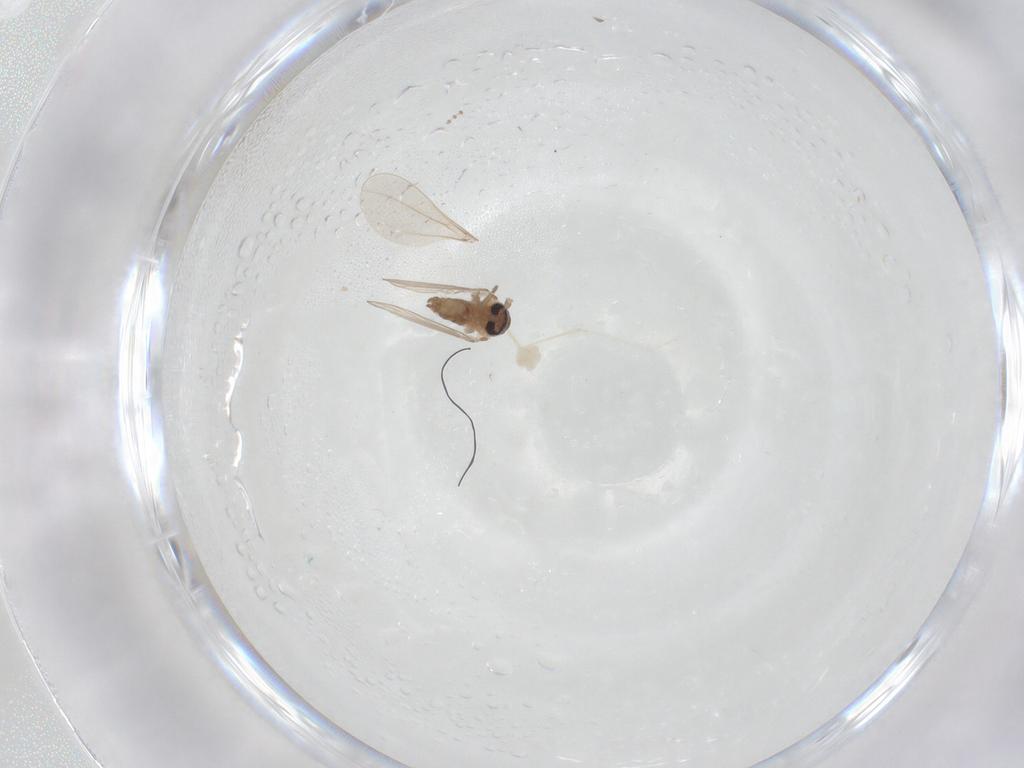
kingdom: Animalia
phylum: Arthropoda
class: Insecta
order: Diptera
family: Psychodidae
